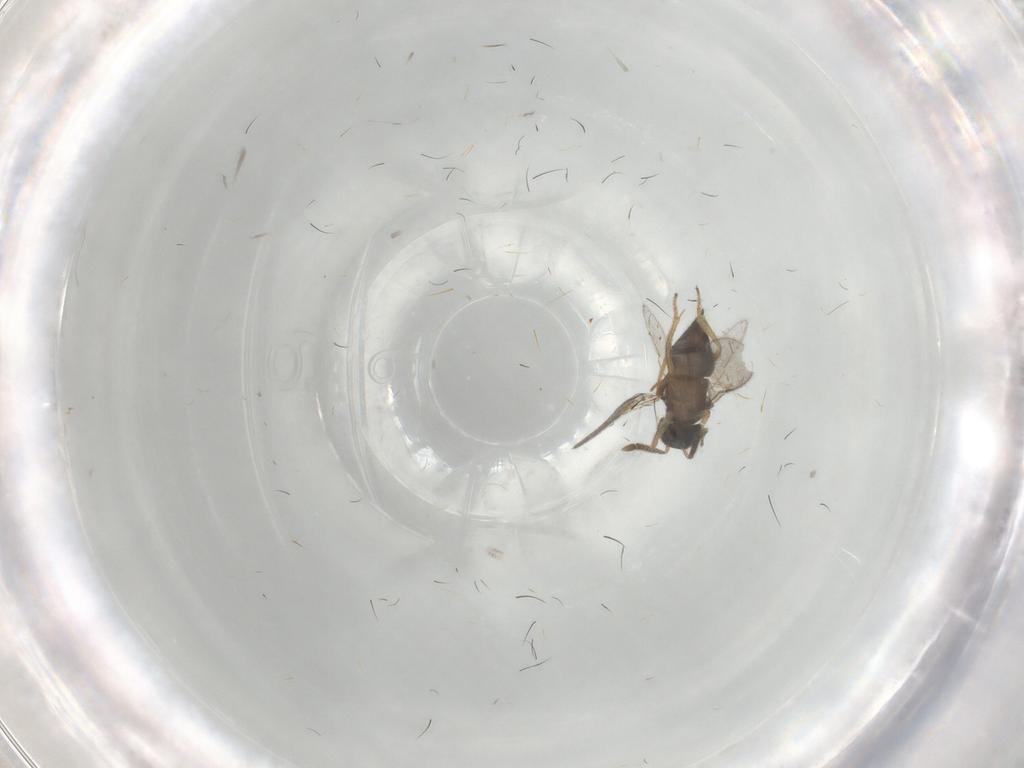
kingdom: Animalia
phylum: Arthropoda
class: Insecta
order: Hymenoptera
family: Encyrtidae
